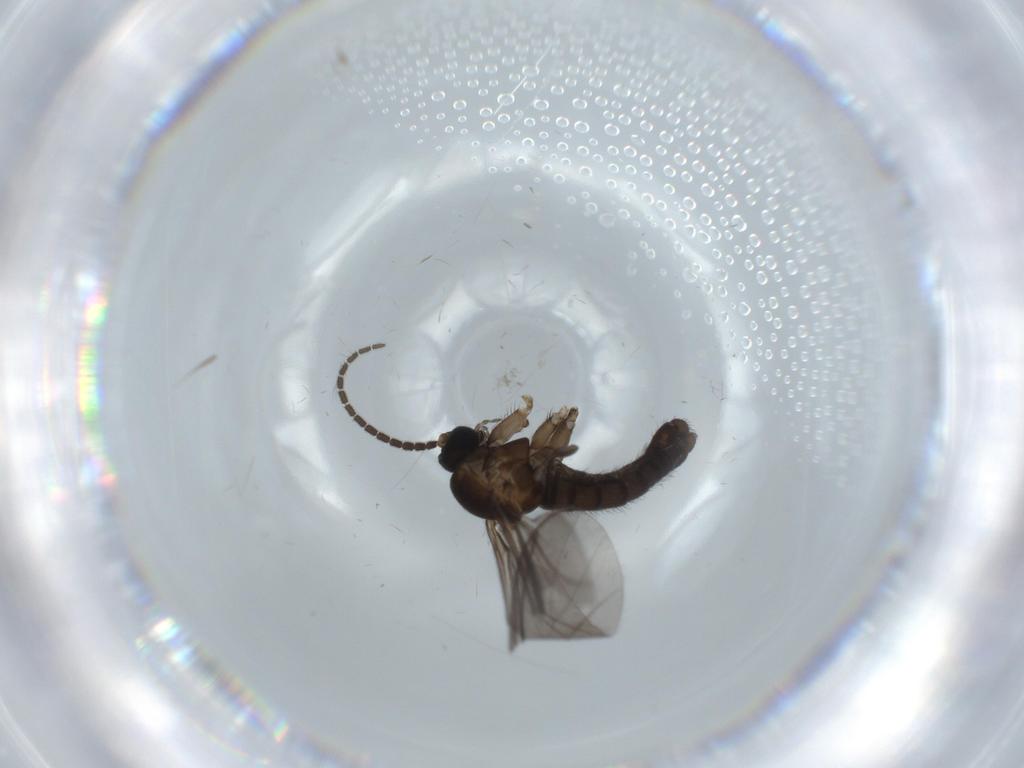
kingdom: Animalia
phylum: Arthropoda
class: Insecta
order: Diptera
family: Sciaridae
